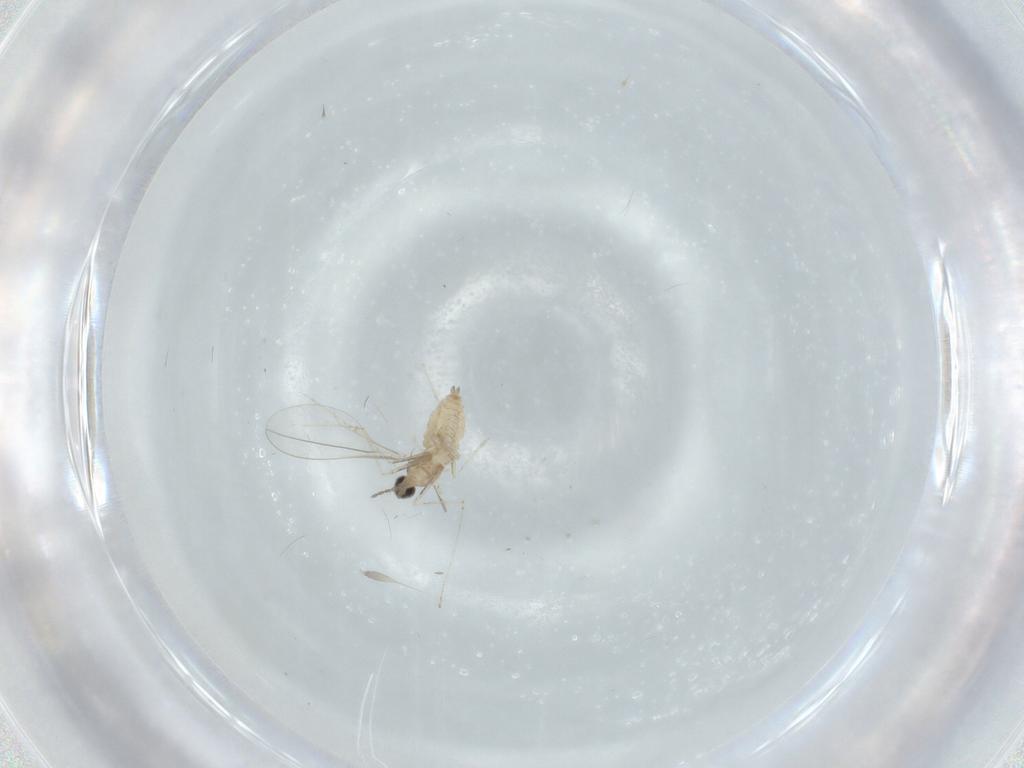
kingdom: Animalia
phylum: Arthropoda
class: Insecta
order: Diptera
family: Cecidomyiidae
